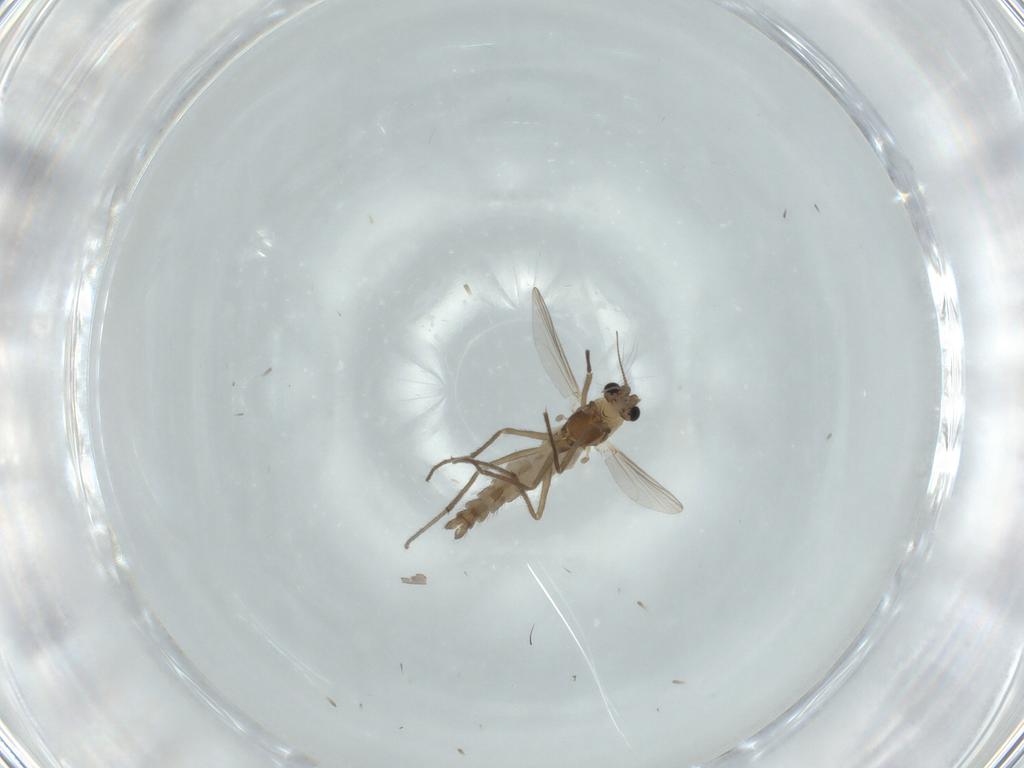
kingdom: Animalia
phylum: Arthropoda
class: Insecta
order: Diptera
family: Chironomidae
